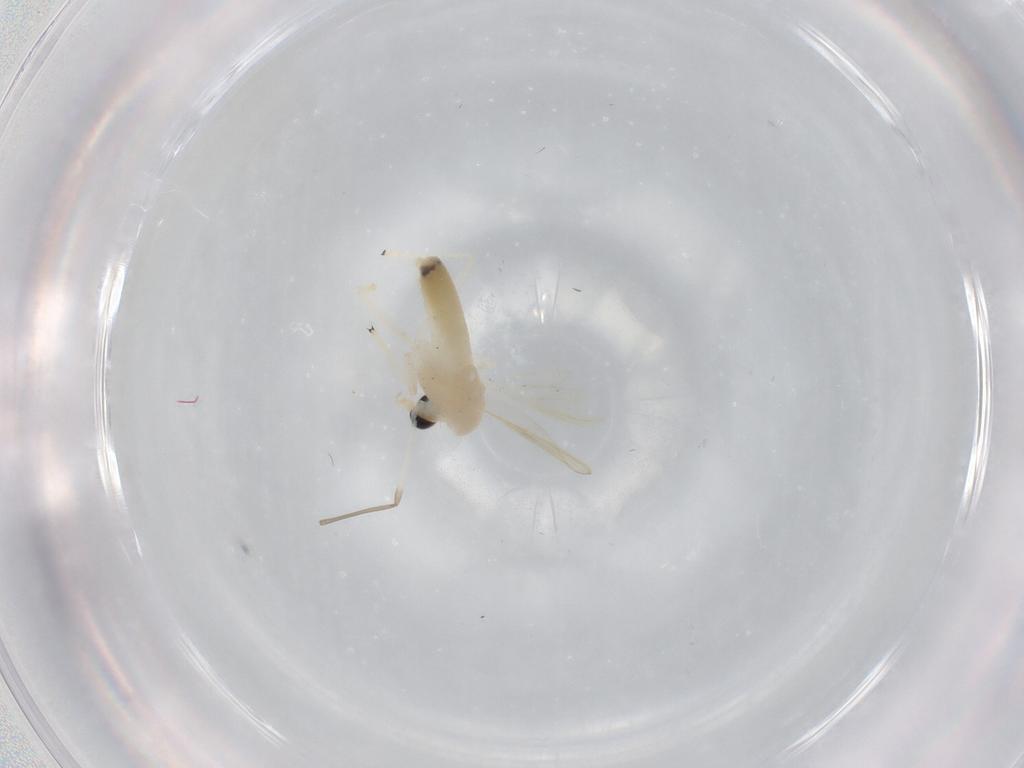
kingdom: Animalia
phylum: Arthropoda
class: Insecta
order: Diptera
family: Chironomidae
